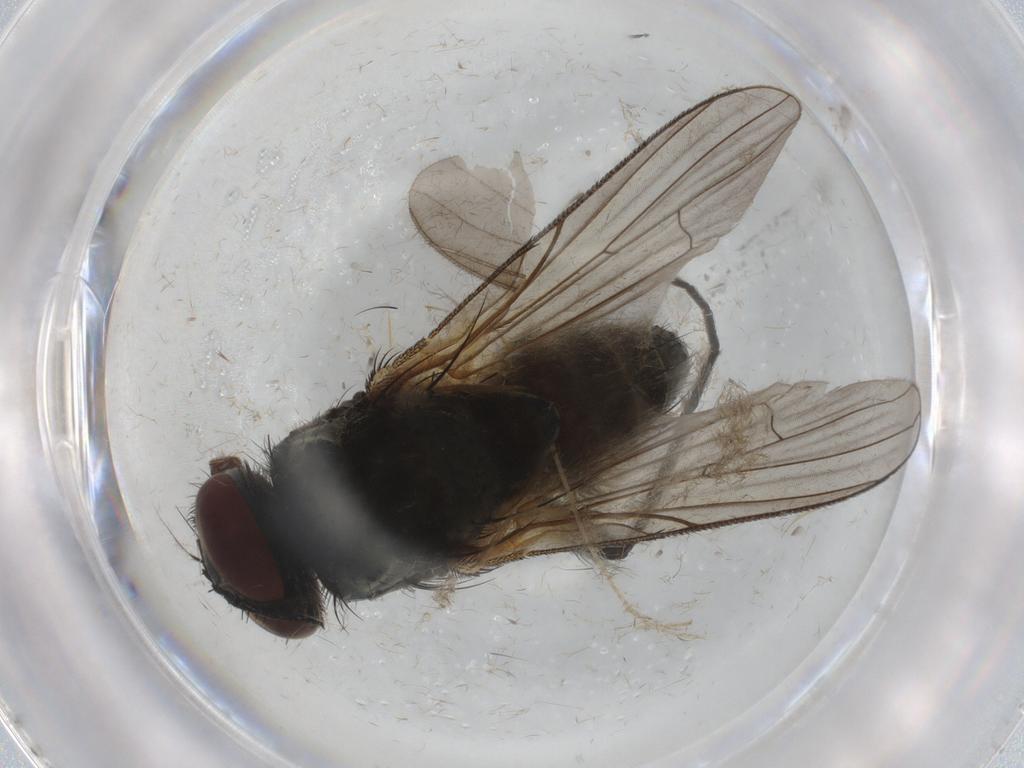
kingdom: Animalia
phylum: Arthropoda
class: Insecta
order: Diptera
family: Muscidae
